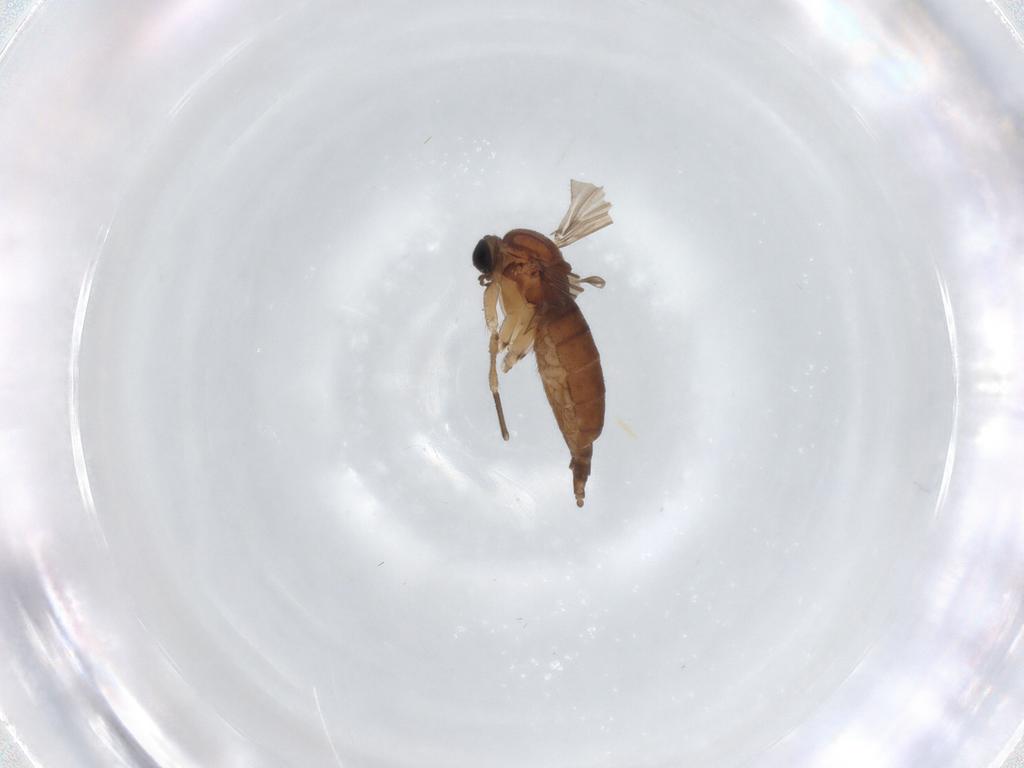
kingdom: Animalia
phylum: Arthropoda
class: Insecta
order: Diptera
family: Sciaridae
